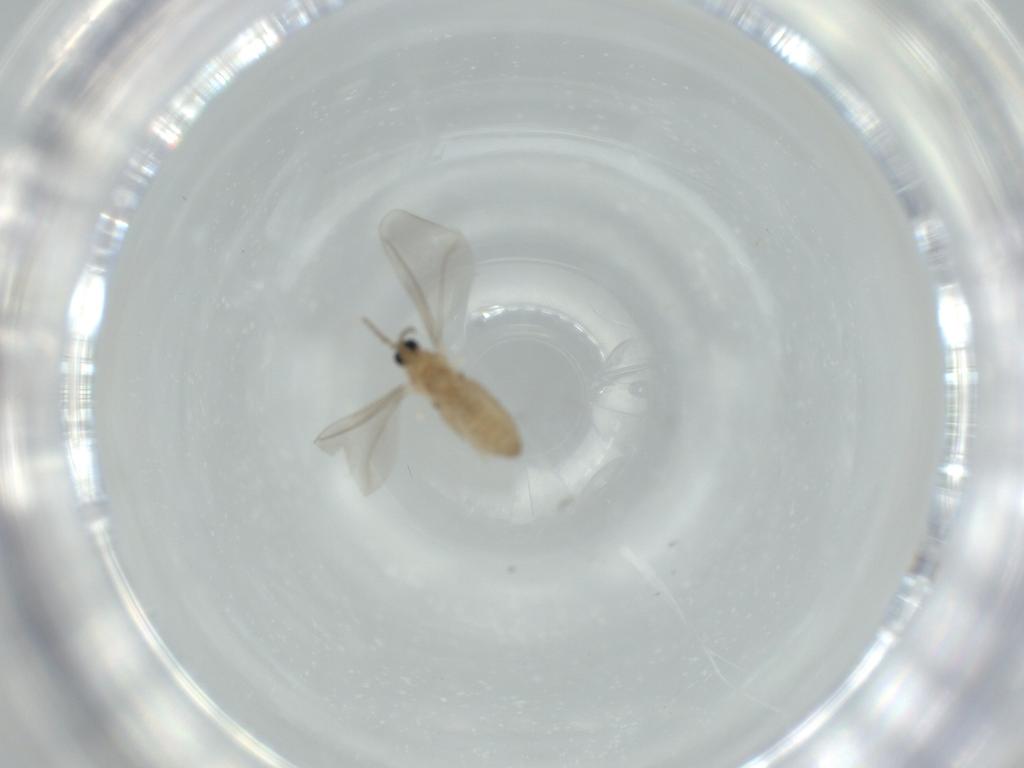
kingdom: Animalia
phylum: Arthropoda
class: Insecta
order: Diptera
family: Cecidomyiidae
